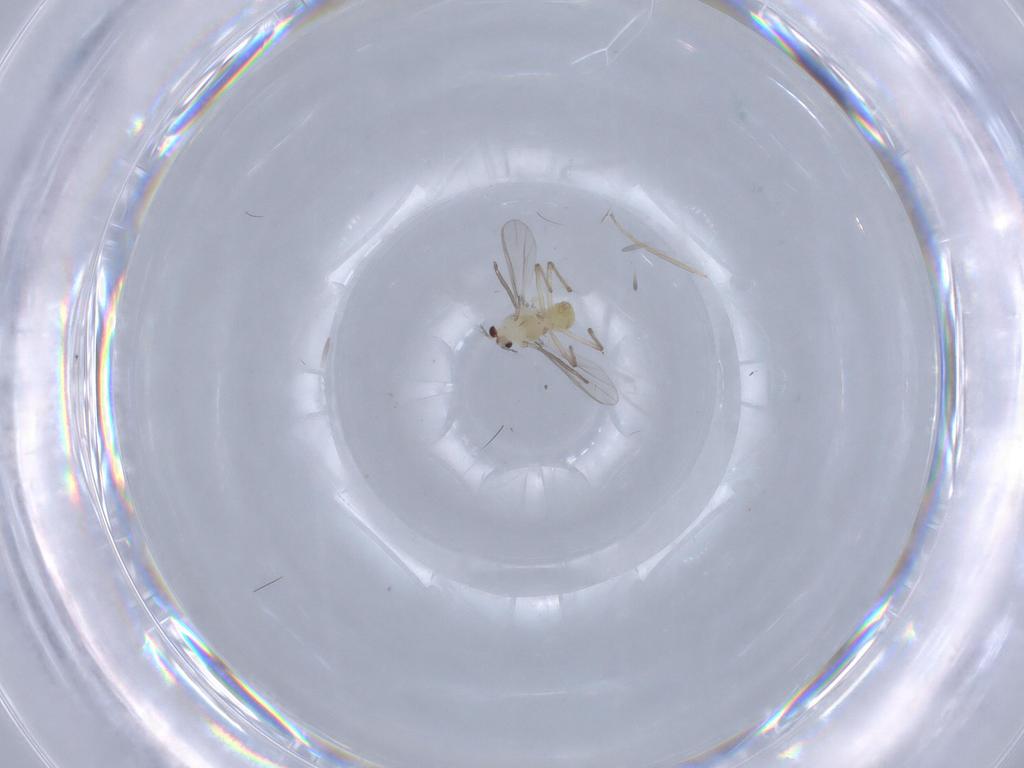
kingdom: Animalia
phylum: Arthropoda
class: Insecta
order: Diptera
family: Chironomidae
